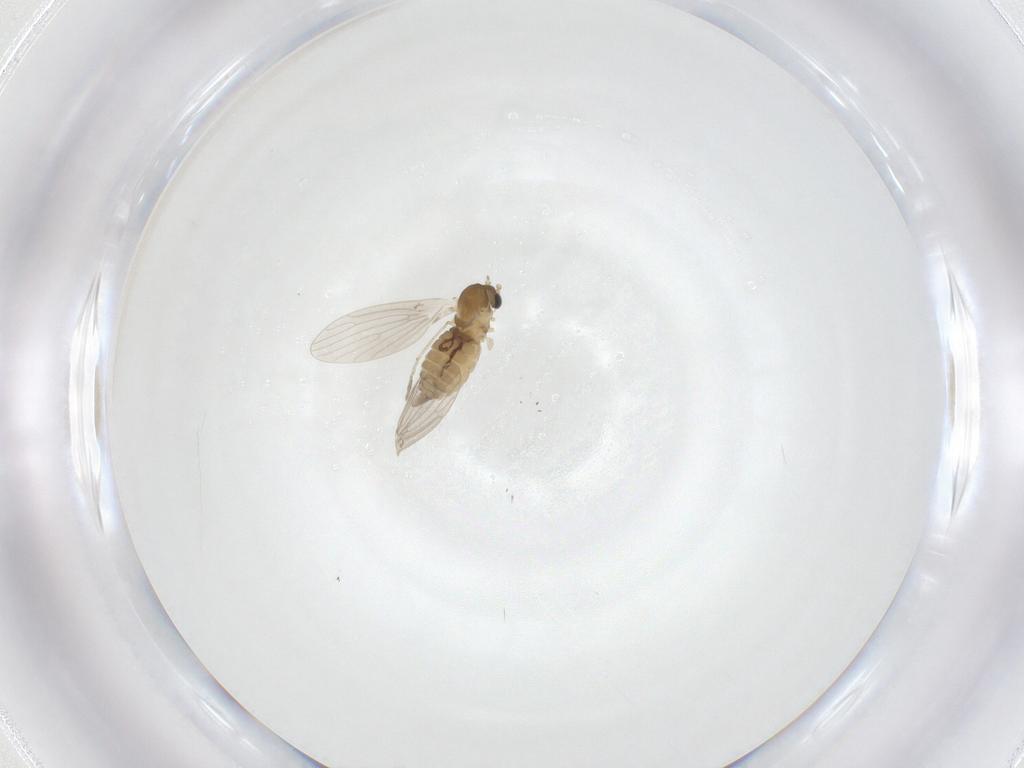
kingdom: Animalia
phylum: Arthropoda
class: Insecta
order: Diptera
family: Psychodidae
